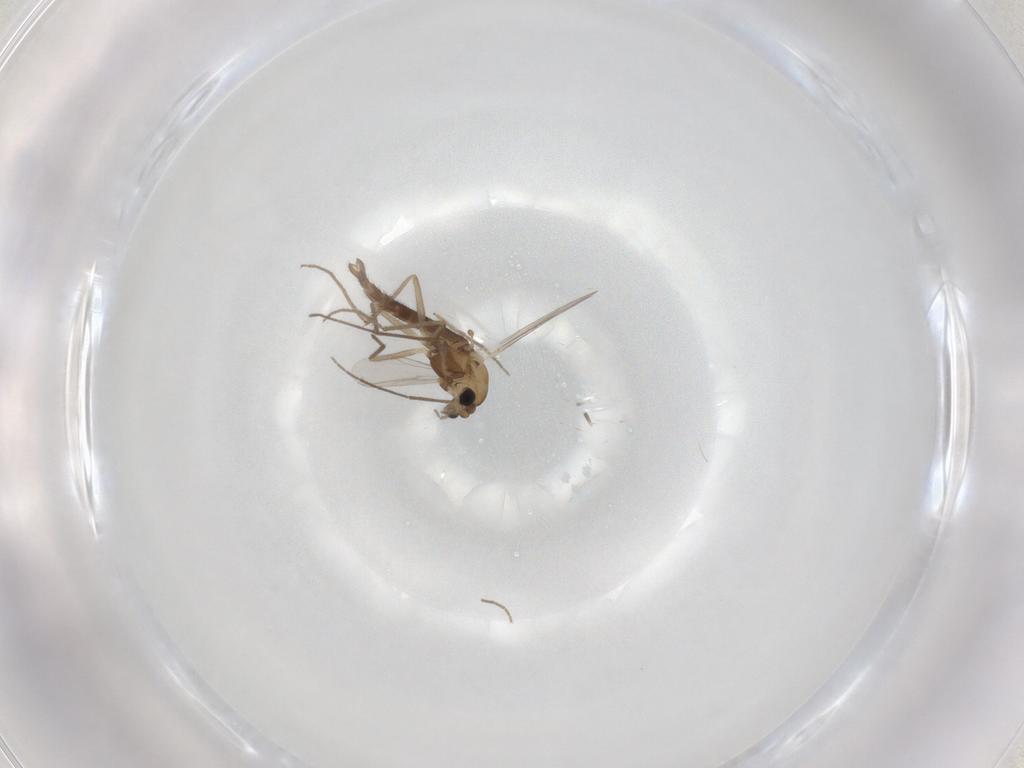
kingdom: Animalia
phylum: Arthropoda
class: Insecta
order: Diptera
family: Chironomidae
